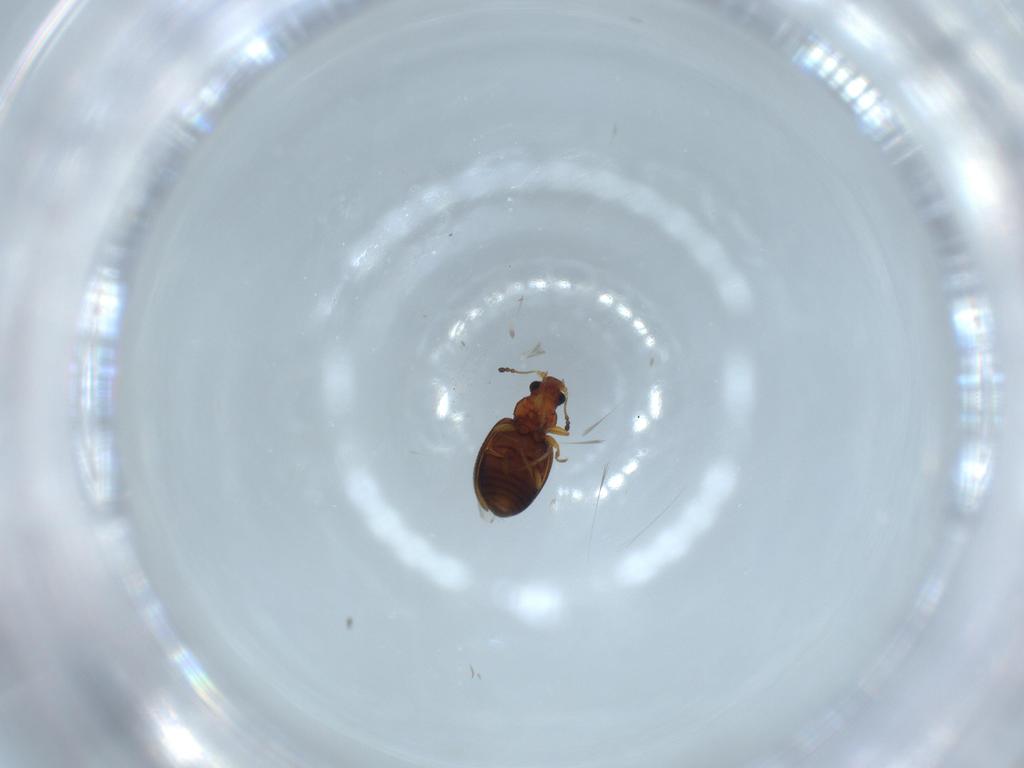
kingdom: Animalia
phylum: Arthropoda
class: Insecta
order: Coleoptera
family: Latridiidae
